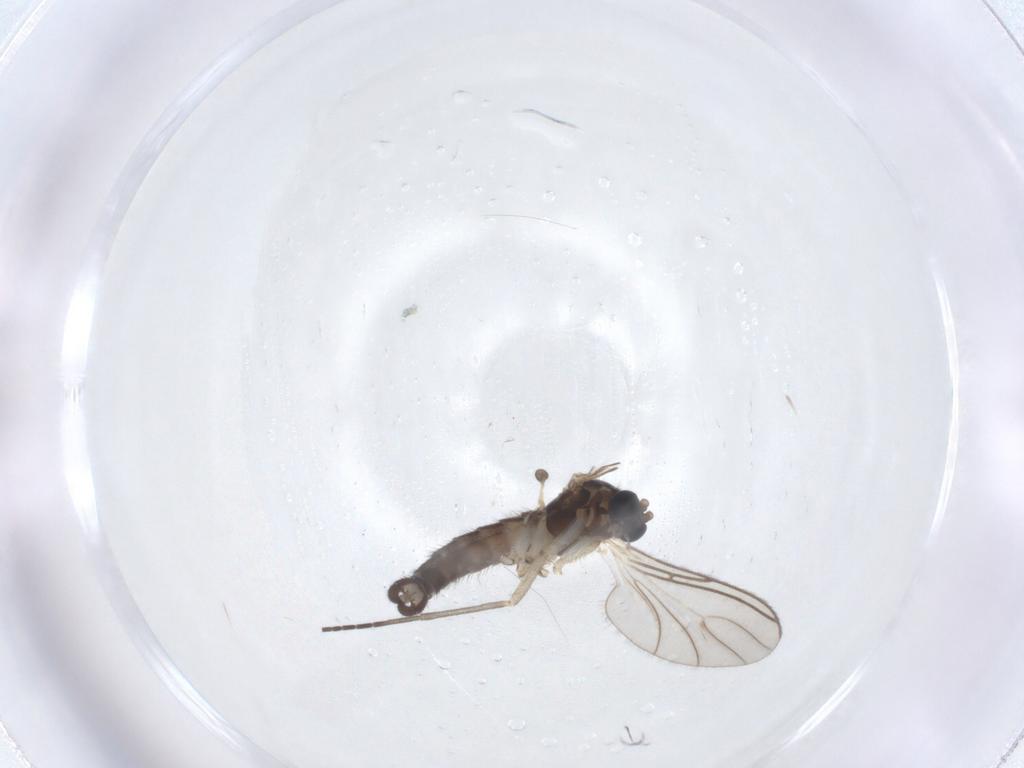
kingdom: Animalia
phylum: Arthropoda
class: Insecta
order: Diptera
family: Sciaridae
